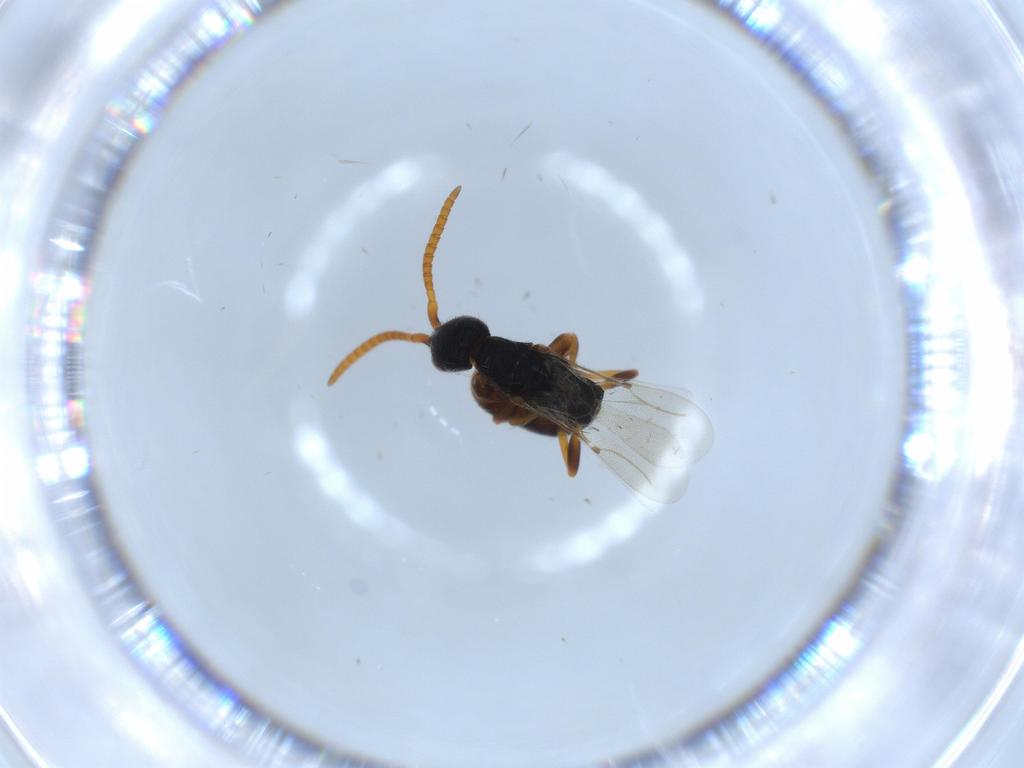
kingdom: Animalia
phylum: Arthropoda
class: Insecta
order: Hymenoptera
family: Bethylidae
